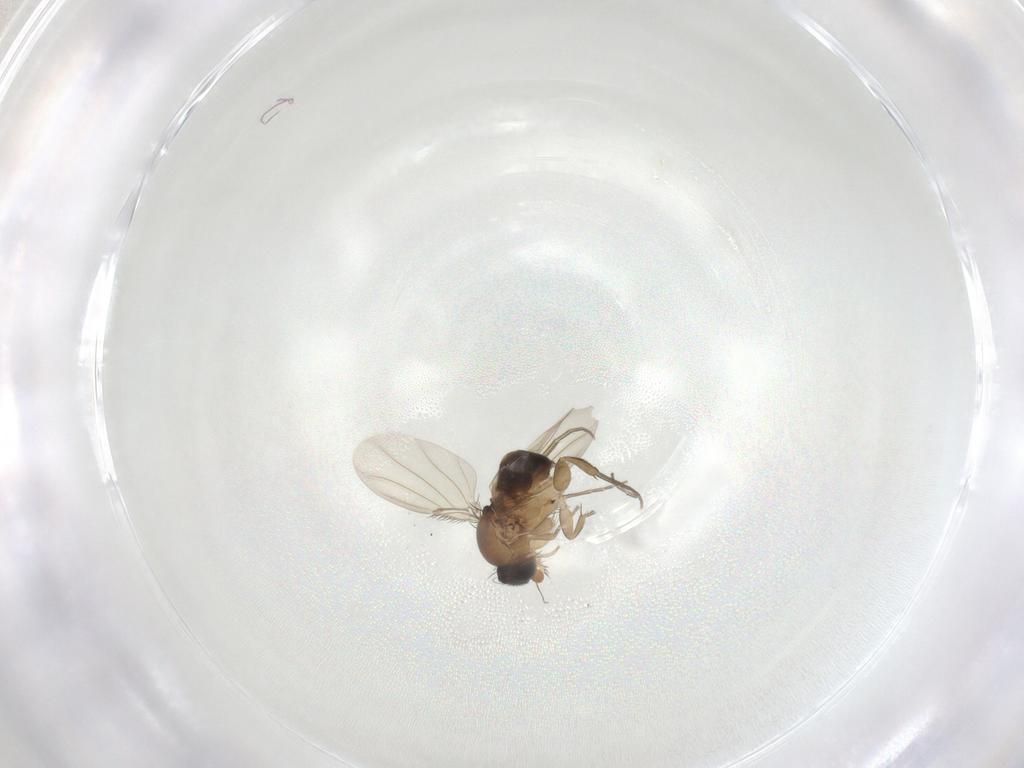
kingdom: Animalia
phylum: Arthropoda
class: Insecta
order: Diptera
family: Phoridae
